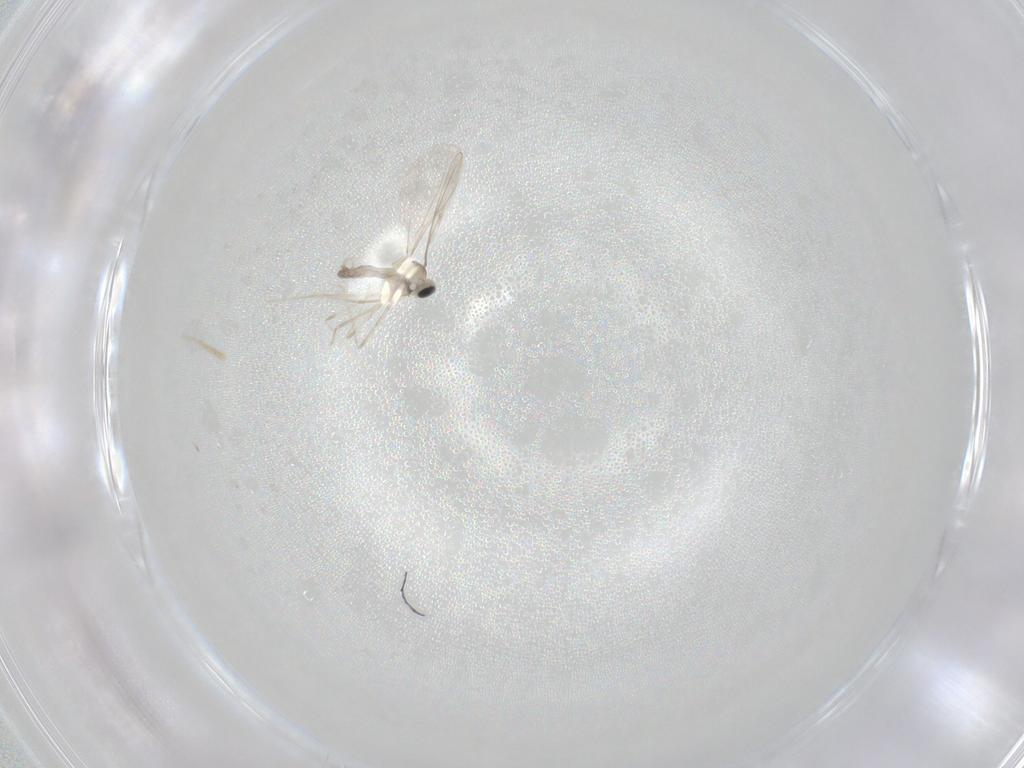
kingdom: Animalia
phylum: Arthropoda
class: Insecta
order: Diptera
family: Cecidomyiidae
